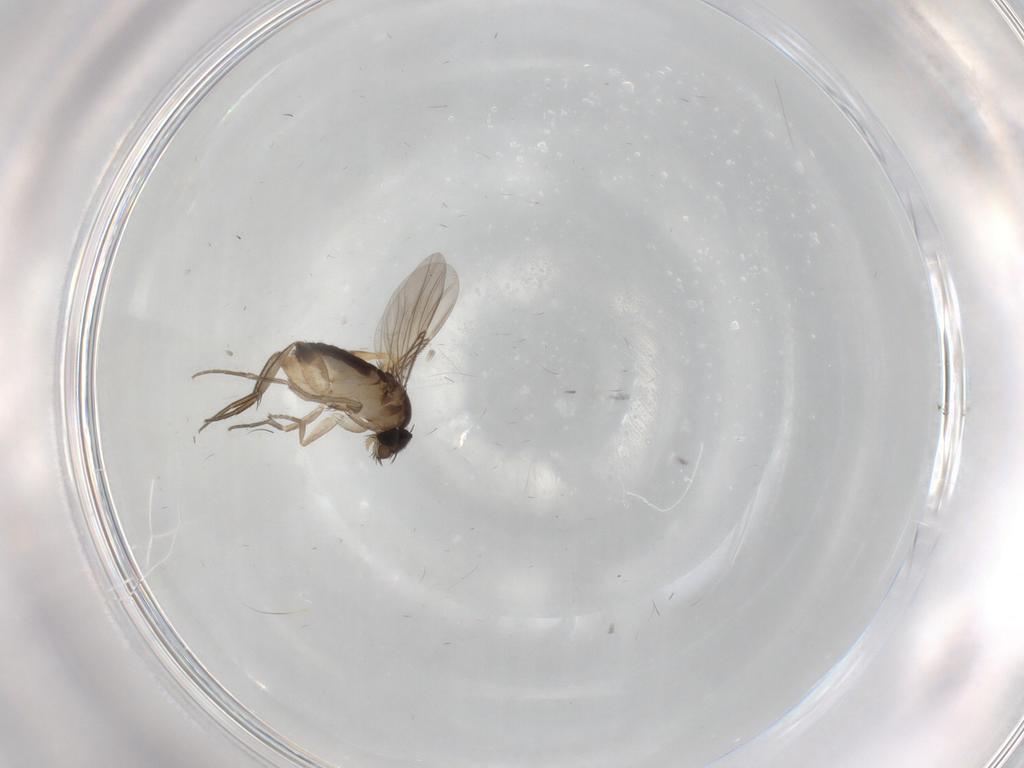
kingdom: Animalia
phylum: Arthropoda
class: Insecta
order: Diptera
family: Phoridae
